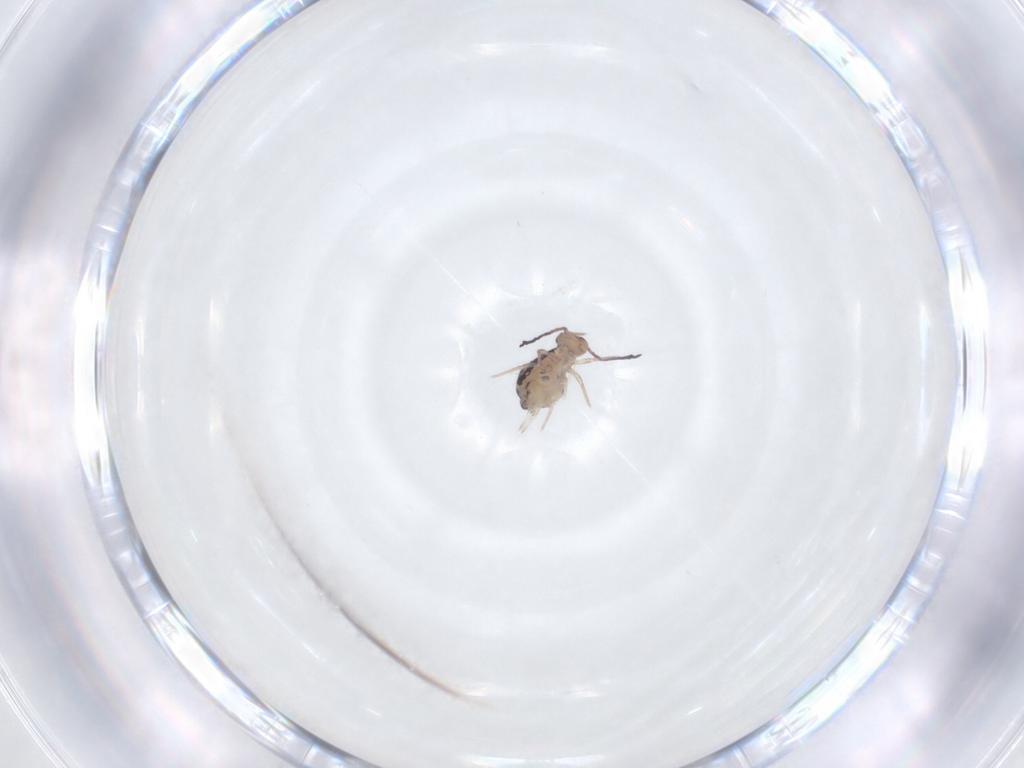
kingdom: Animalia
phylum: Arthropoda
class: Collembola
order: Symphypleona
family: Dicyrtomidae
